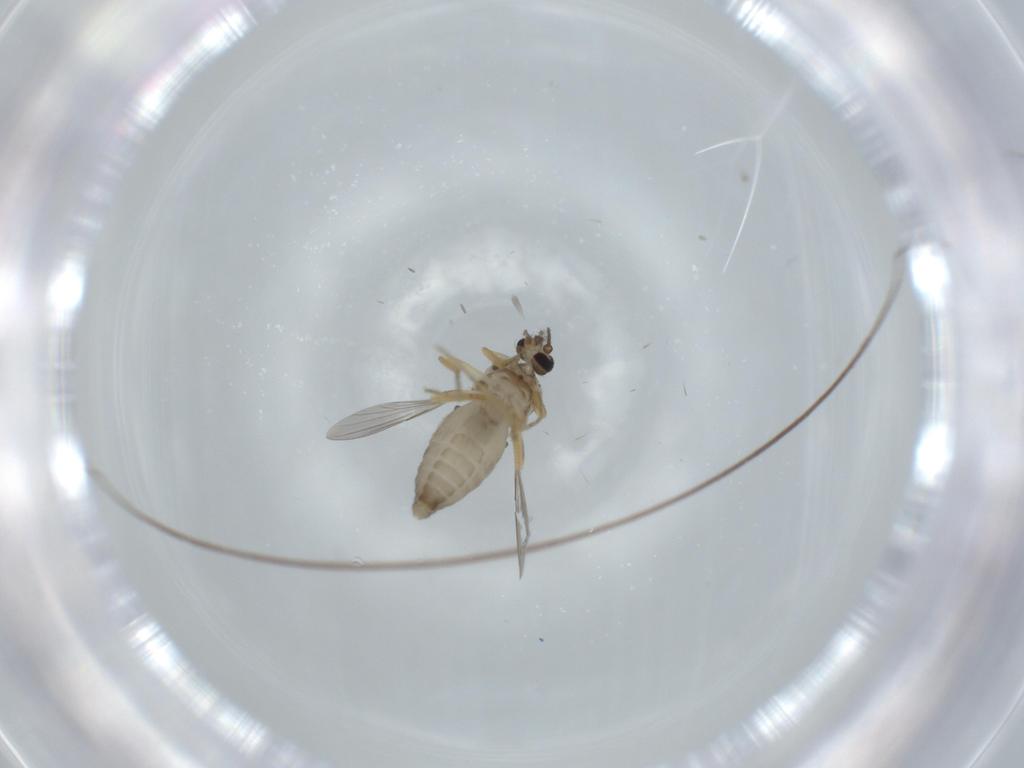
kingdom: Animalia
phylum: Arthropoda
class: Insecta
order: Diptera
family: Ceratopogonidae
